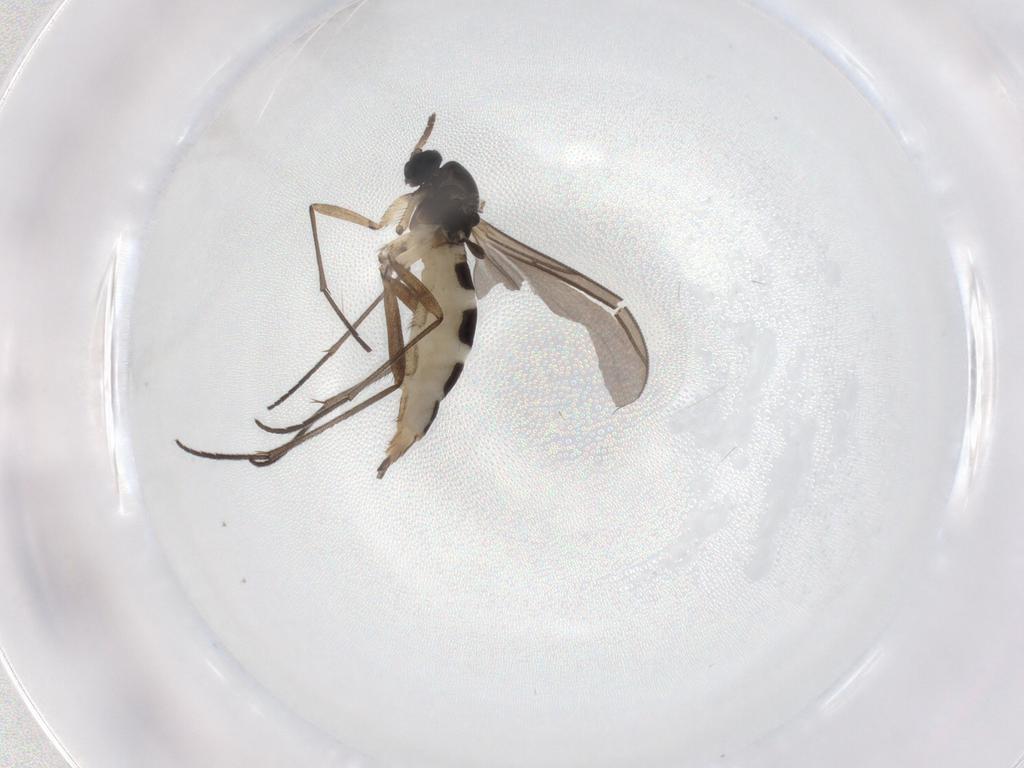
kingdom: Animalia
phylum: Arthropoda
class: Insecta
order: Diptera
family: Sciaridae
